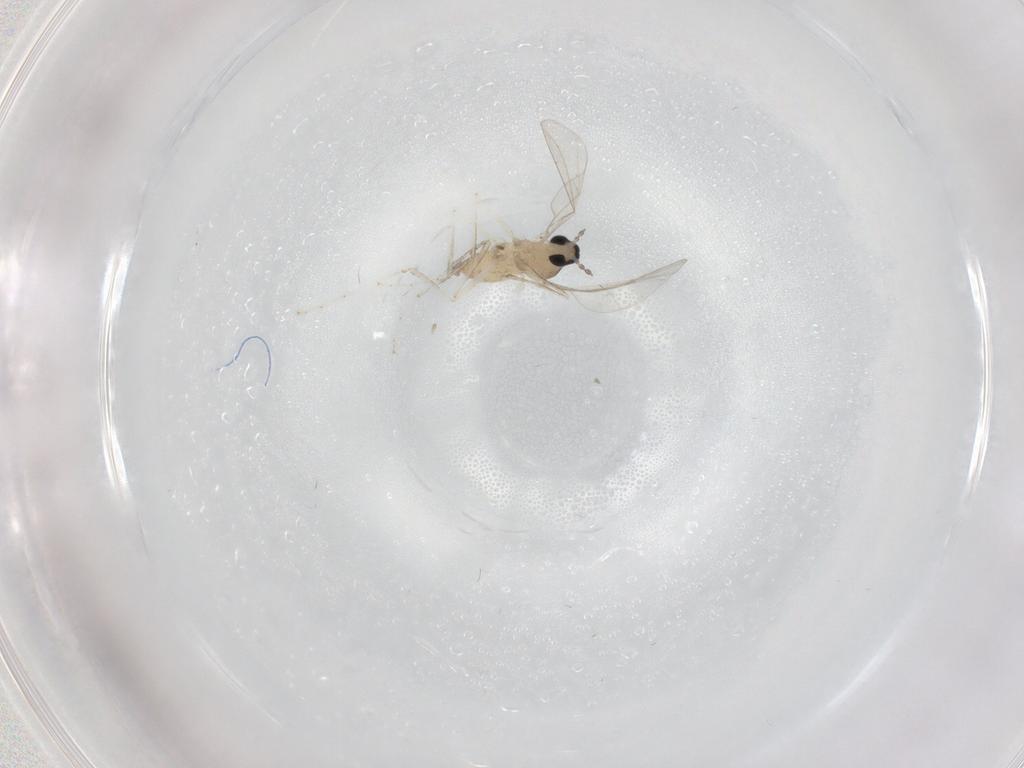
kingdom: Animalia
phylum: Arthropoda
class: Insecta
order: Diptera
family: Cecidomyiidae
